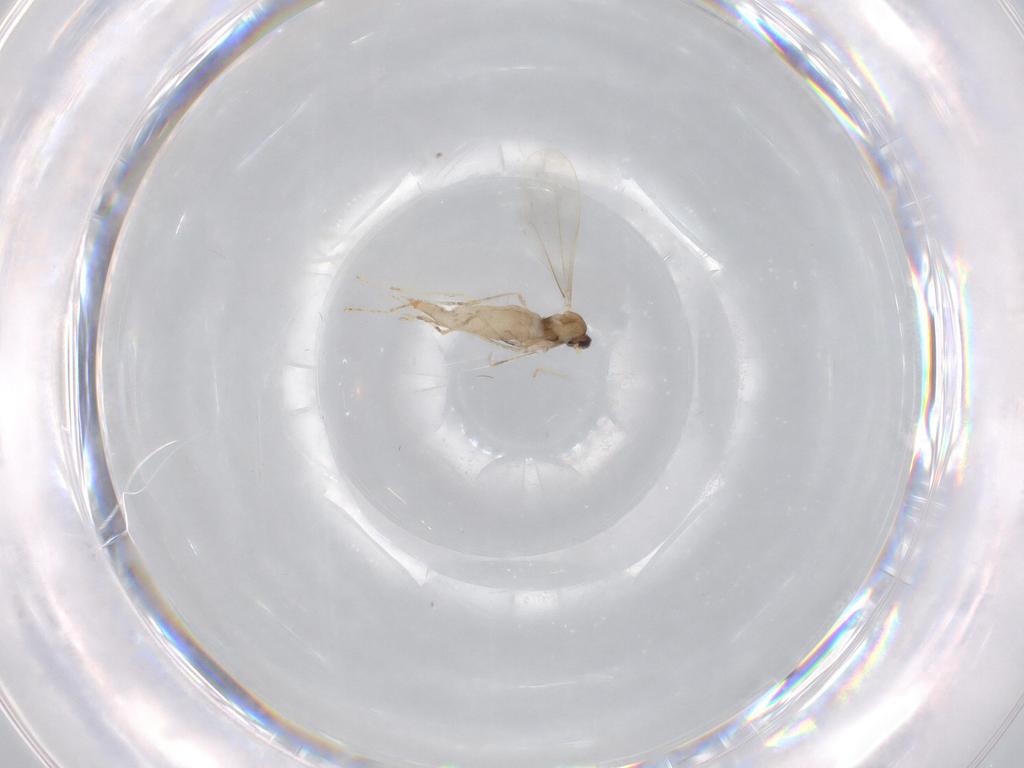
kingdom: Animalia
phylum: Arthropoda
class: Insecta
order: Diptera
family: Cecidomyiidae
